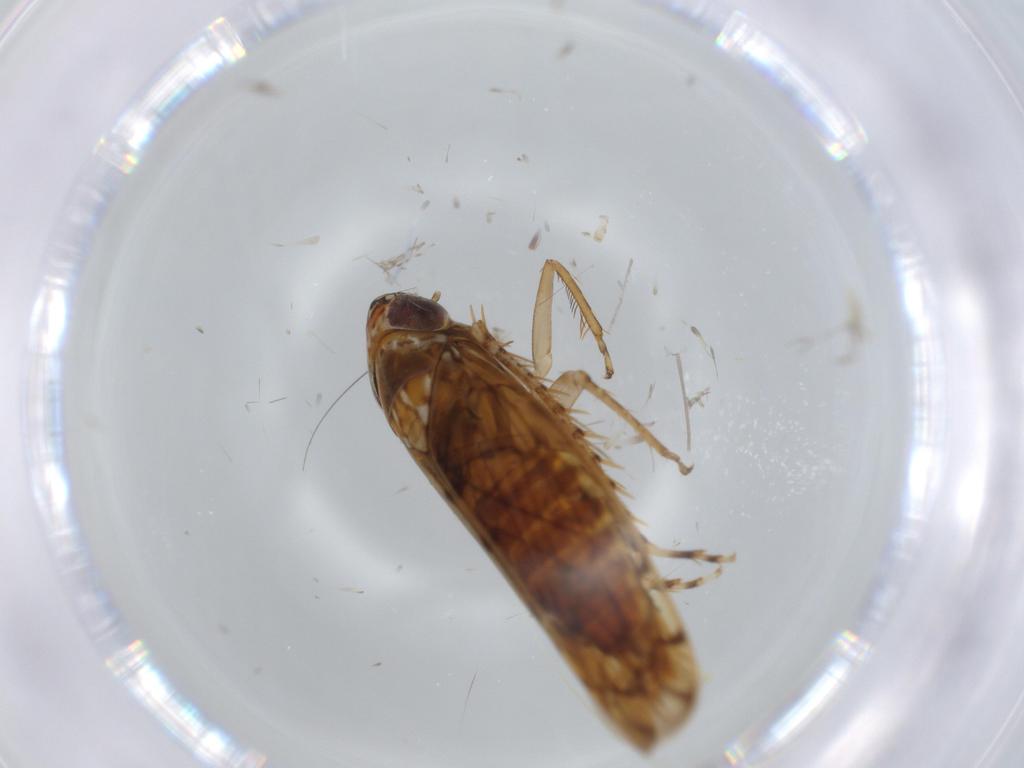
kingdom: Animalia
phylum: Arthropoda
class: Insecta
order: Hemiptera
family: Cicadellidae
